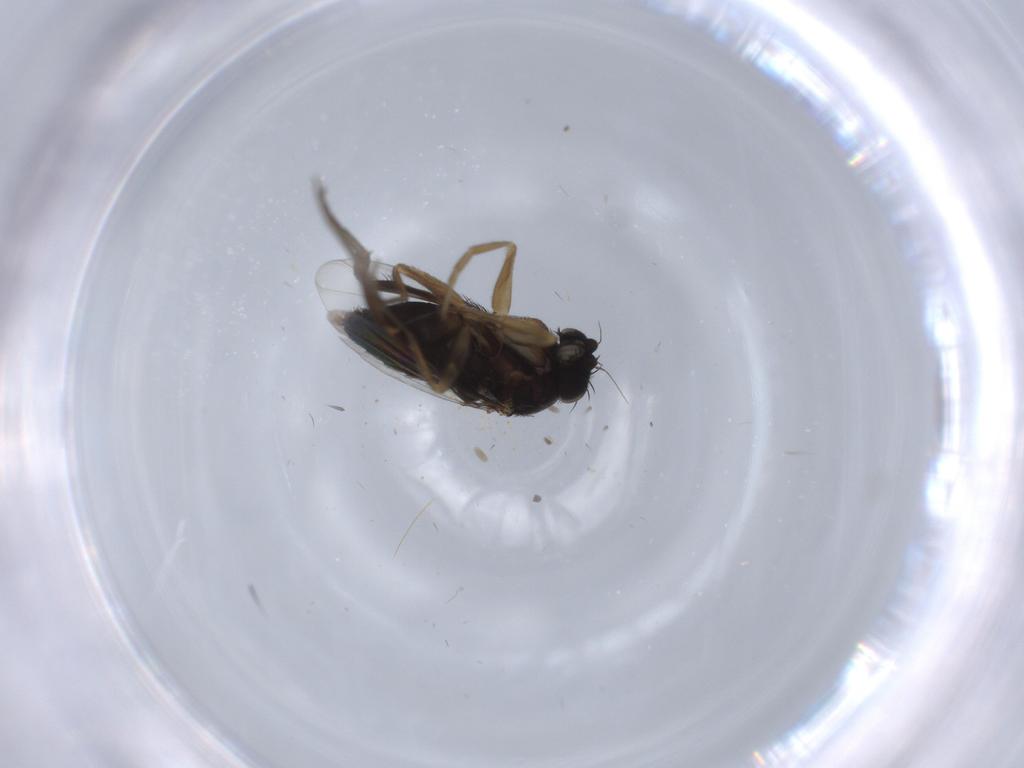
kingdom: Animalia
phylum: Arthropoda
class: Insecta
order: Diptera
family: Phoridae
